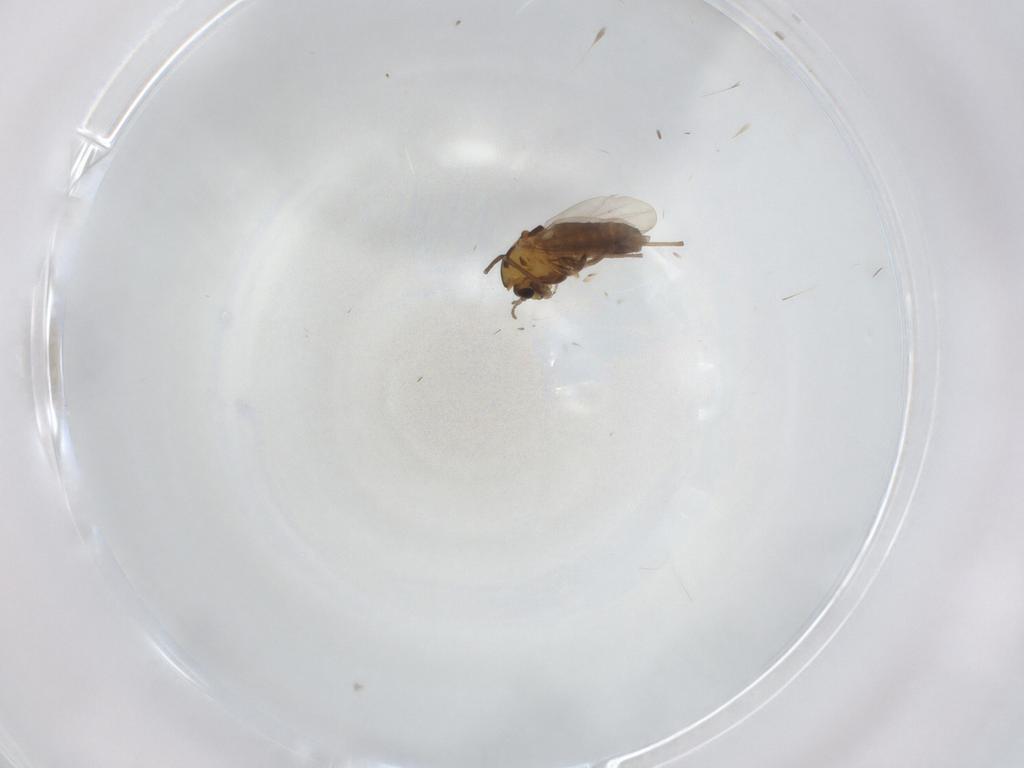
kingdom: Animalia
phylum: Arthropoda
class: Insecta
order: Diptera
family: Chironomidae
